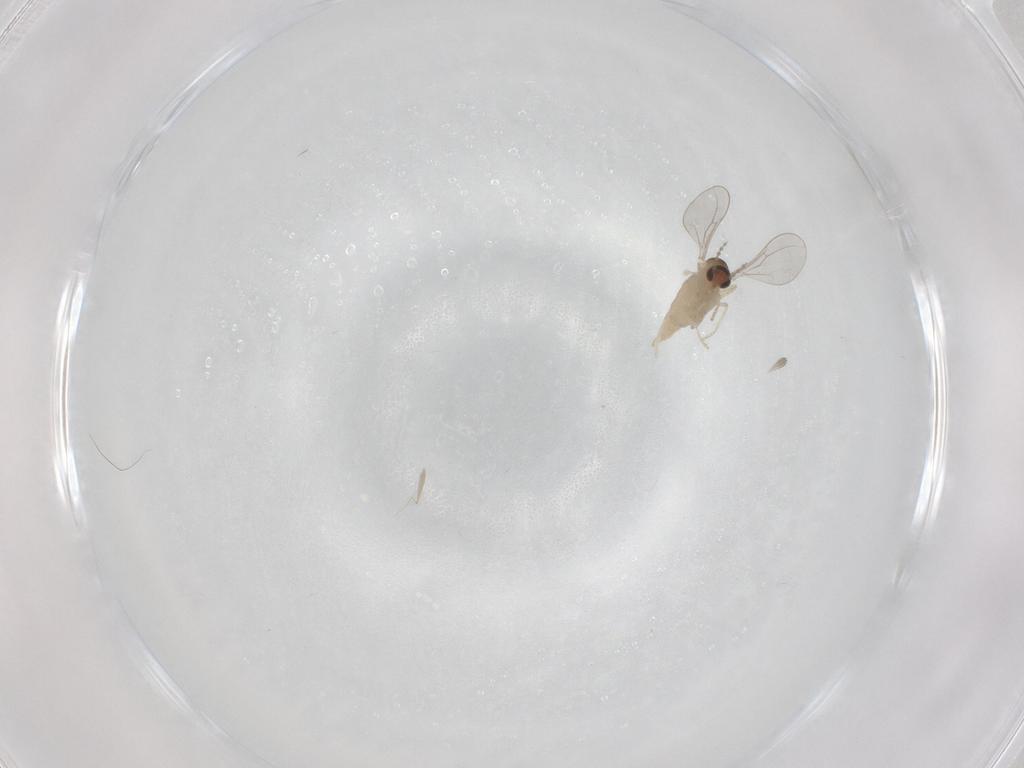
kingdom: Animalia
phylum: Arthropoda
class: Insecta
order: Diptera
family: Cecidomyiidae
